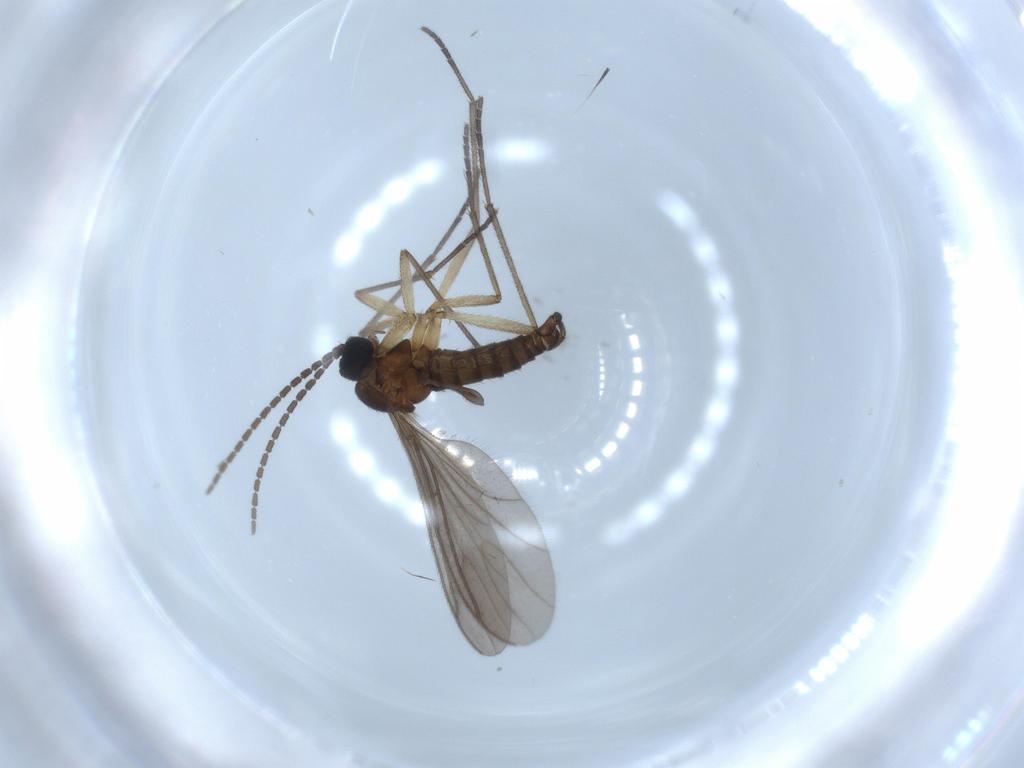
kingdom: Animalia
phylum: Arthropoda
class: Insecta
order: Diptera
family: Sciaridae
